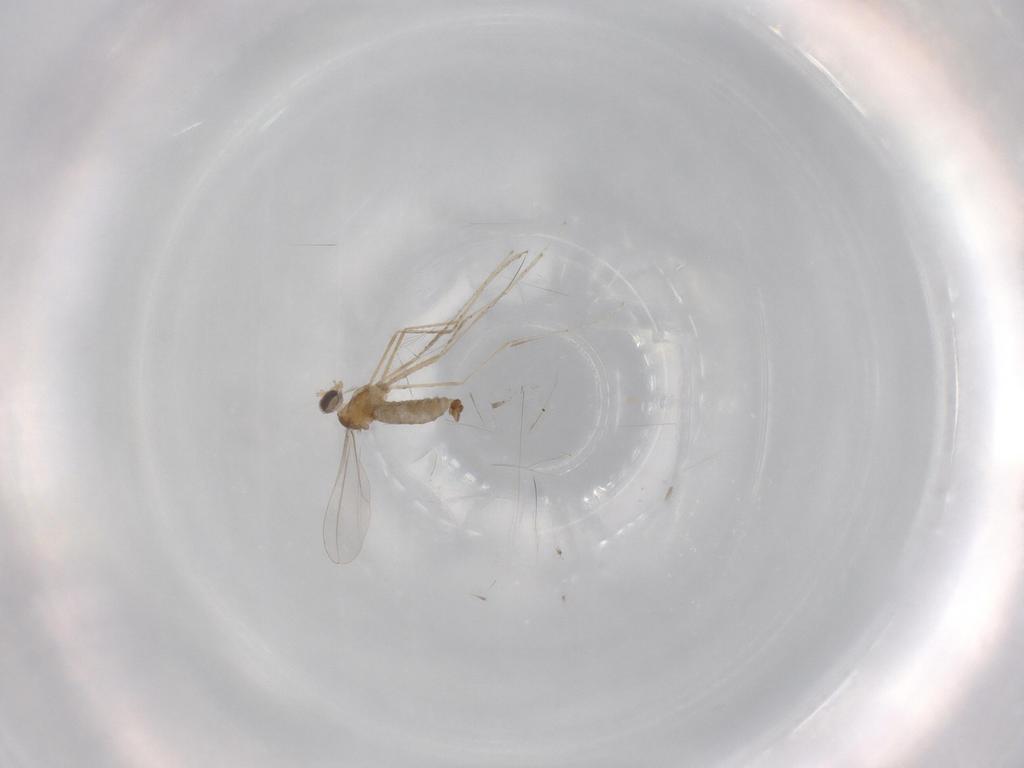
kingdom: Animalia
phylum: Arthropoda
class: Insecta
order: Diptera
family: Cecidomyiidae
